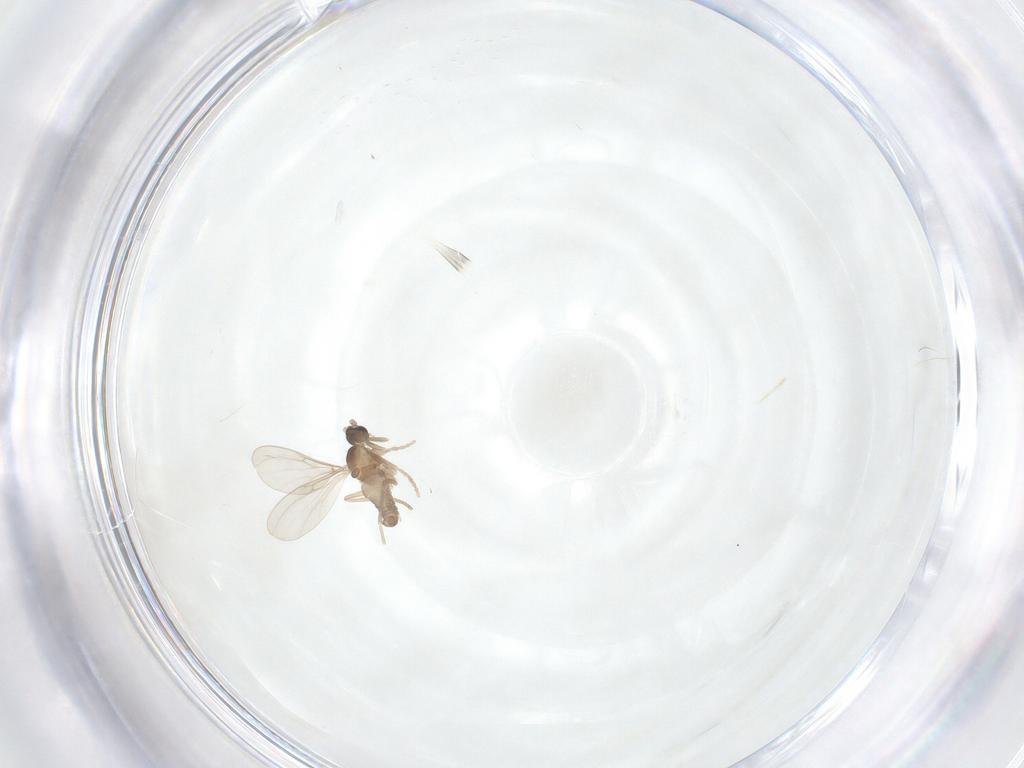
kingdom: Animalia
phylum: Arthropoda
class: Insecta
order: Diptera
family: Cecidomyiidae
